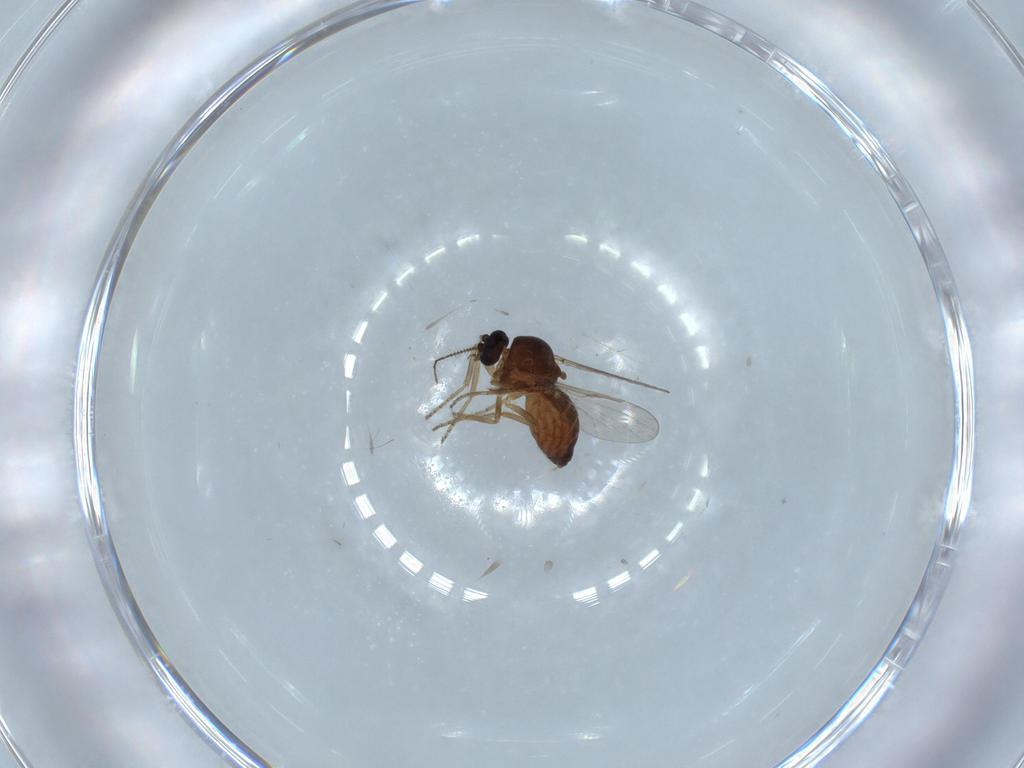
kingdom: Animalia
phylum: Arthropoda
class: Insecta
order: Diptera
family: Ceratopogonidae
